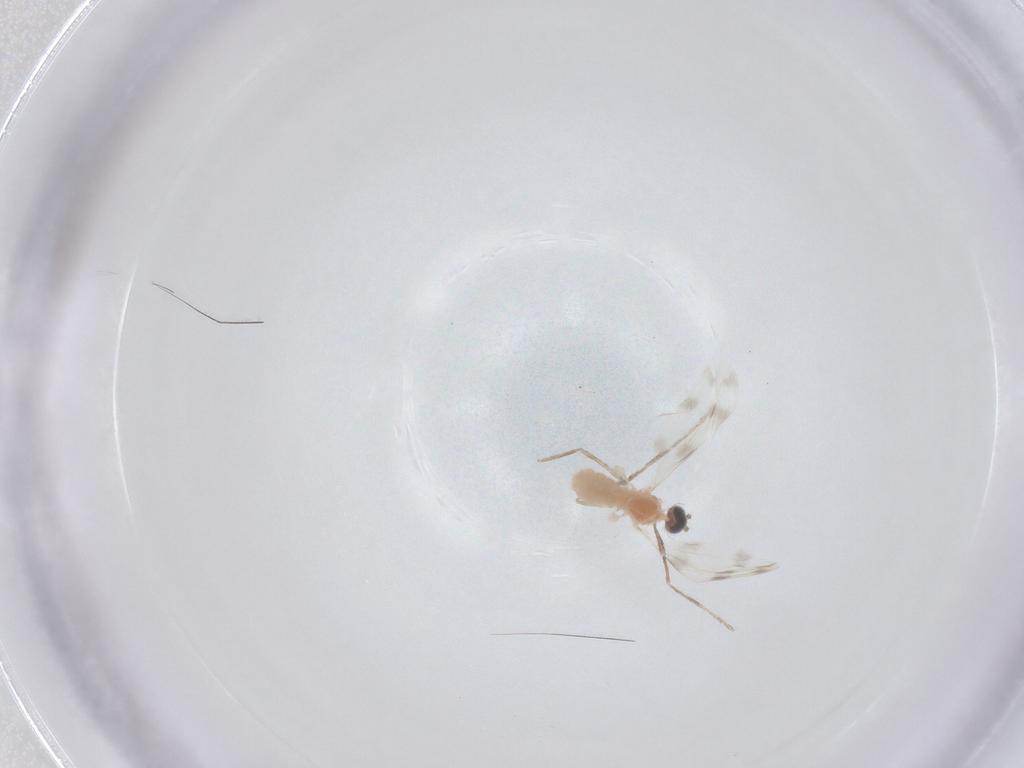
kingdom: Animalia
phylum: Arthropoda
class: Insecta
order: Diptera
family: Cecidomyiidae
